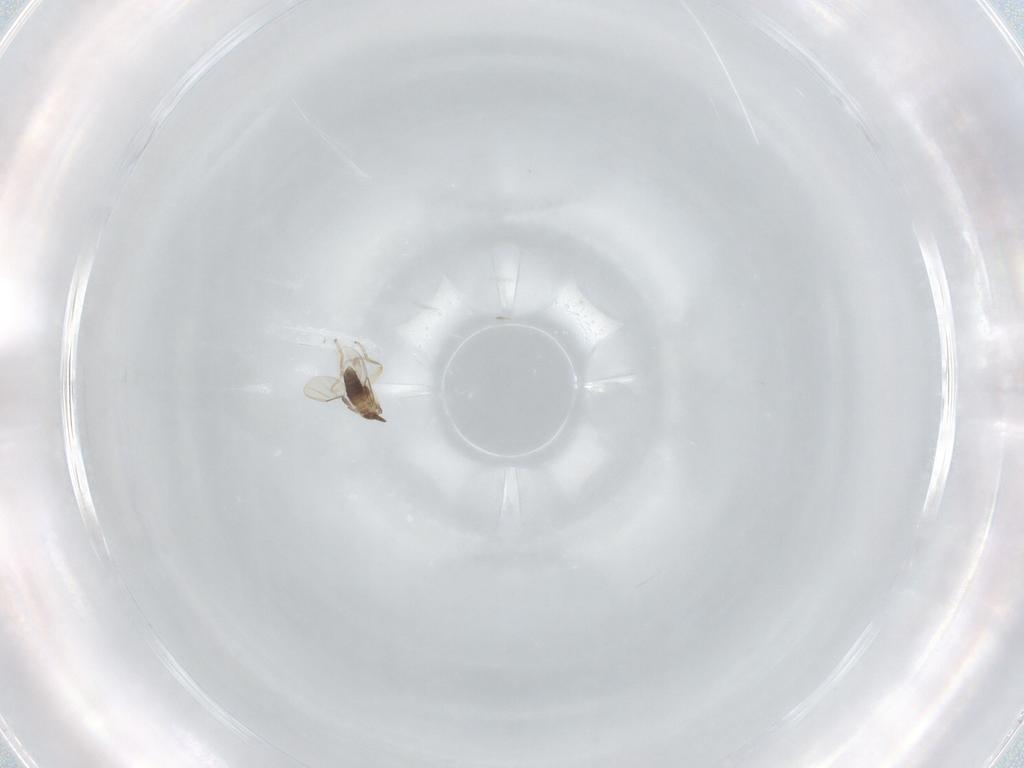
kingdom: Animalia
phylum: Arthropoda
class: Insecta
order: Diptera
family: Phoridae
